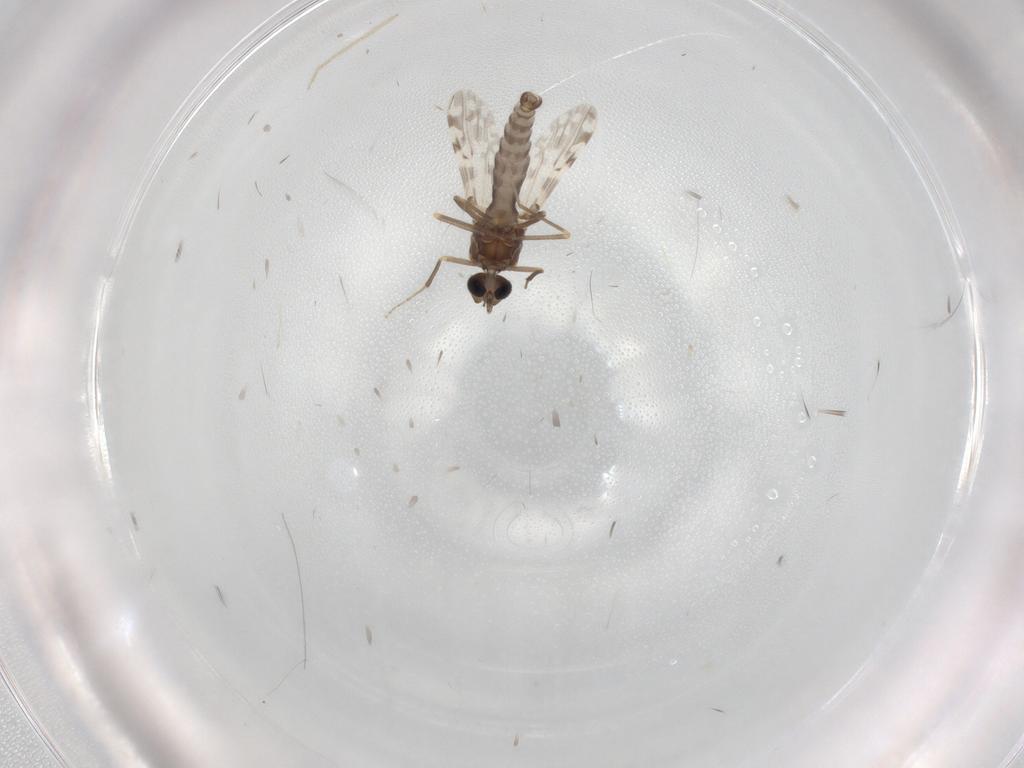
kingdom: Animalia
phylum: Arthropoda
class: Insecta
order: Diptera
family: Ceratopogonidae
